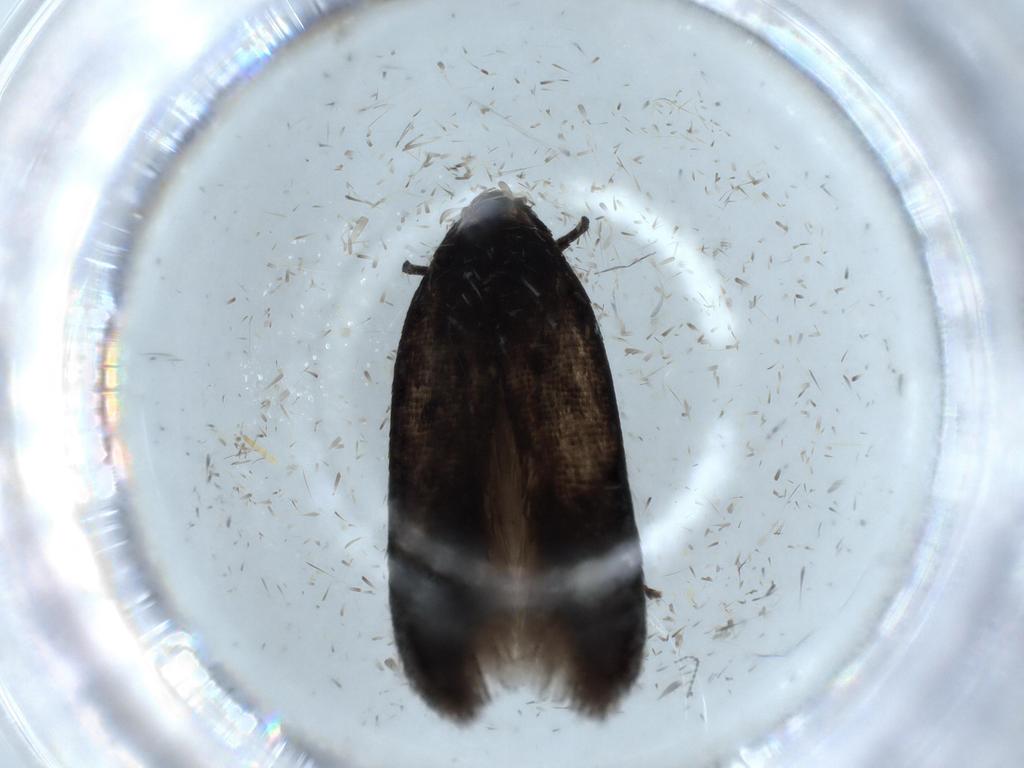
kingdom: Animalia
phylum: Arthropoda
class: Insecta
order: Lepidoptera
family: Cosmopterigidae
